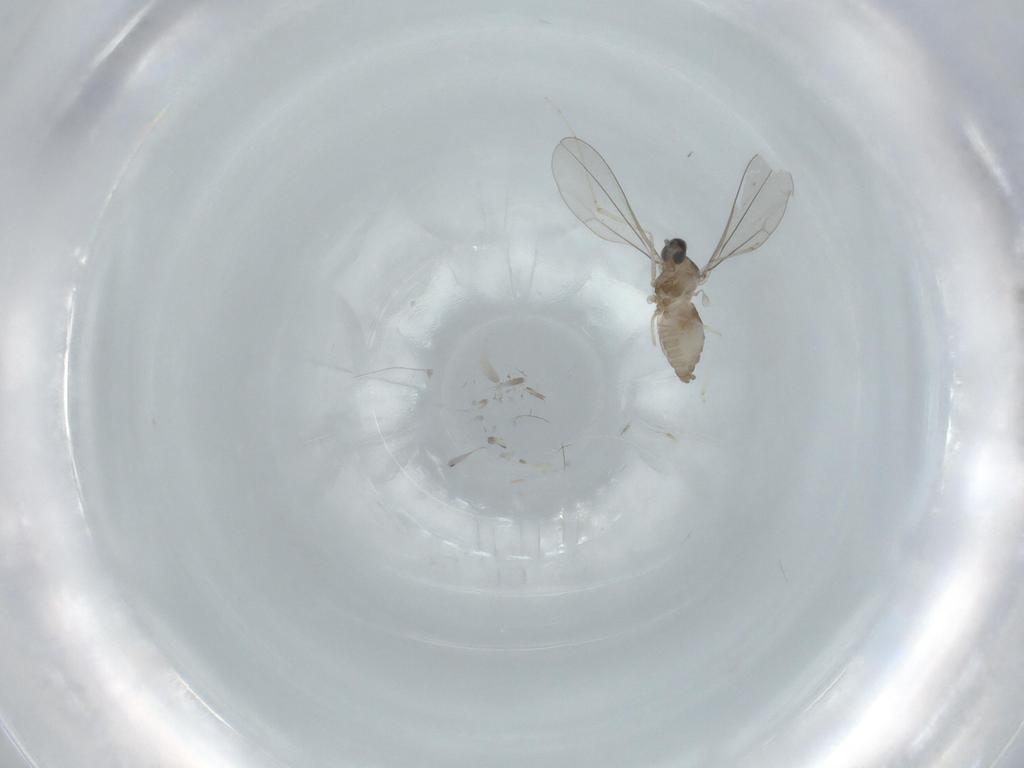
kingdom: Animalia
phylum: Arthropoda
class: Insecta
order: Diptera
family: Cecidomyiidae
